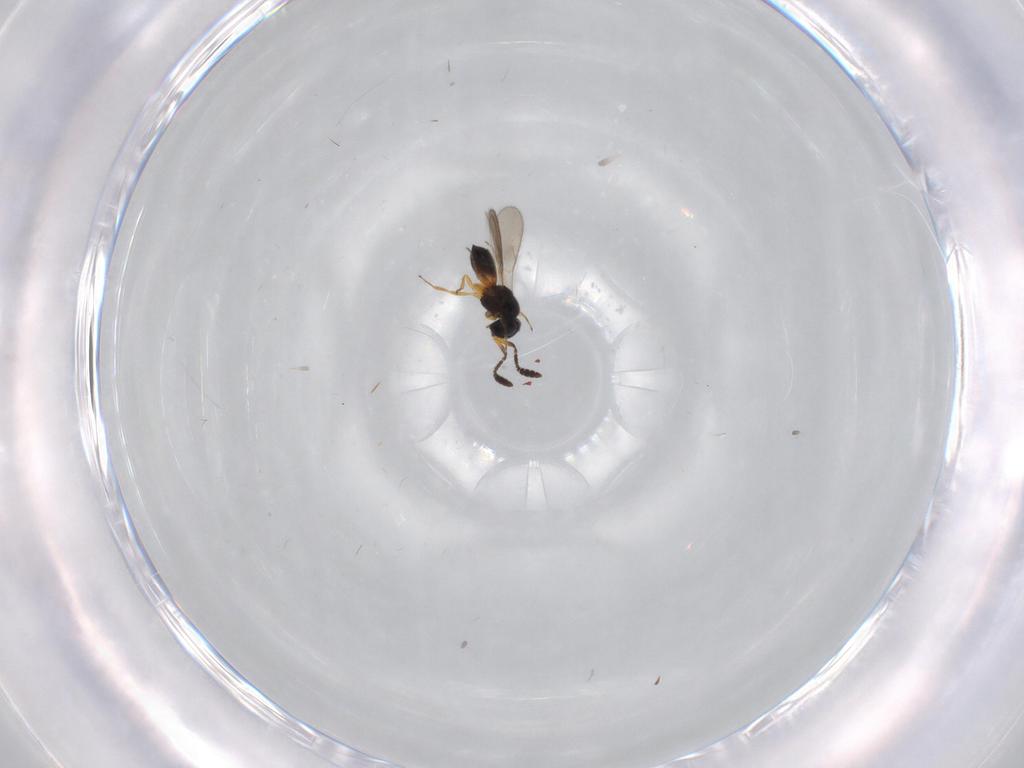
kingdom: Animalia
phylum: Arthropoda
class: Insecta
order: Hymenoptera
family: Scelionidae
